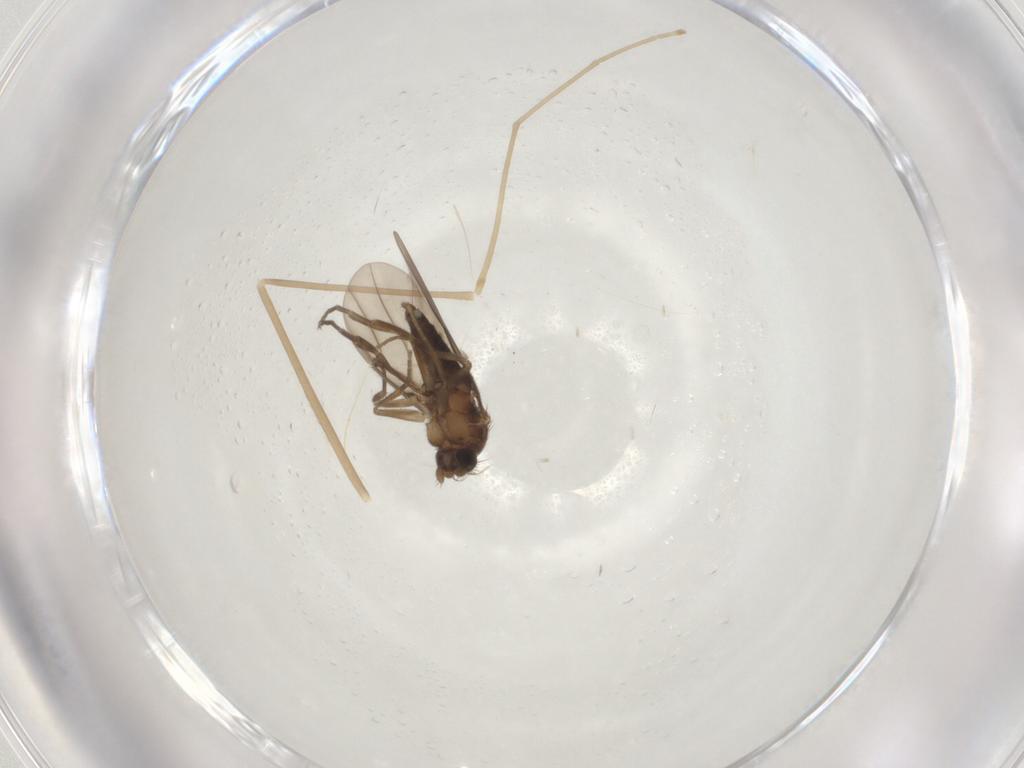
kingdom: Animalia
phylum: Arthropoda
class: Insecta
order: Diptera
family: Cecidomyiidae
